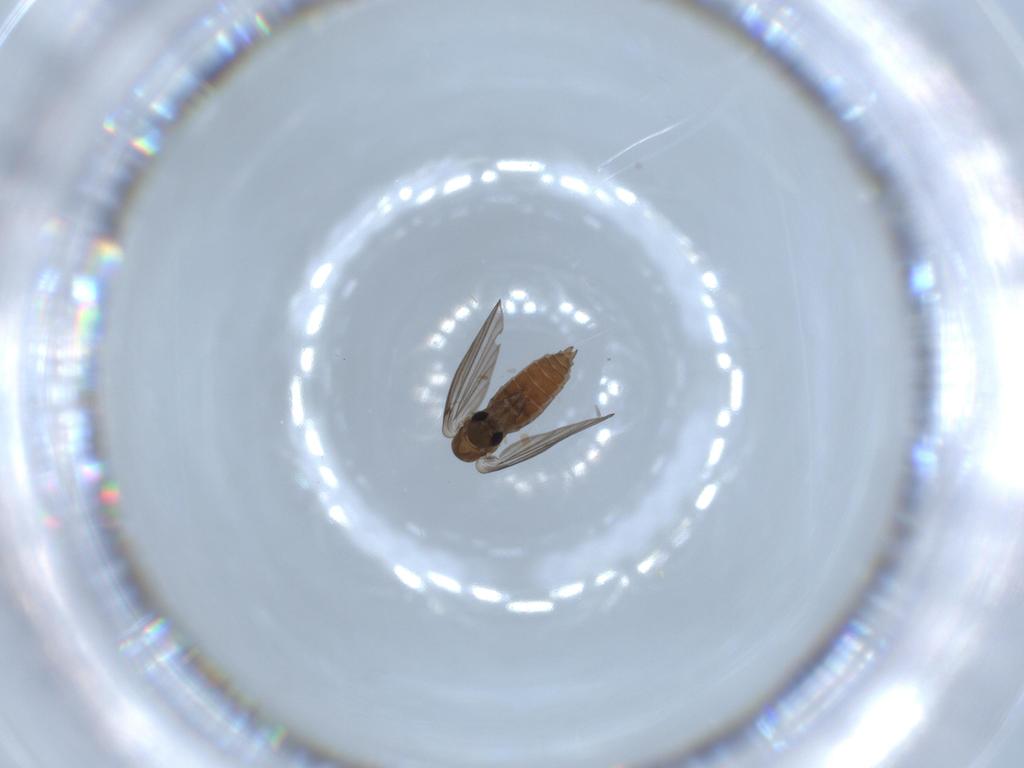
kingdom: Animalia
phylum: Arthropoda
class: Insecta
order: Diptera
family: Psychodidae
